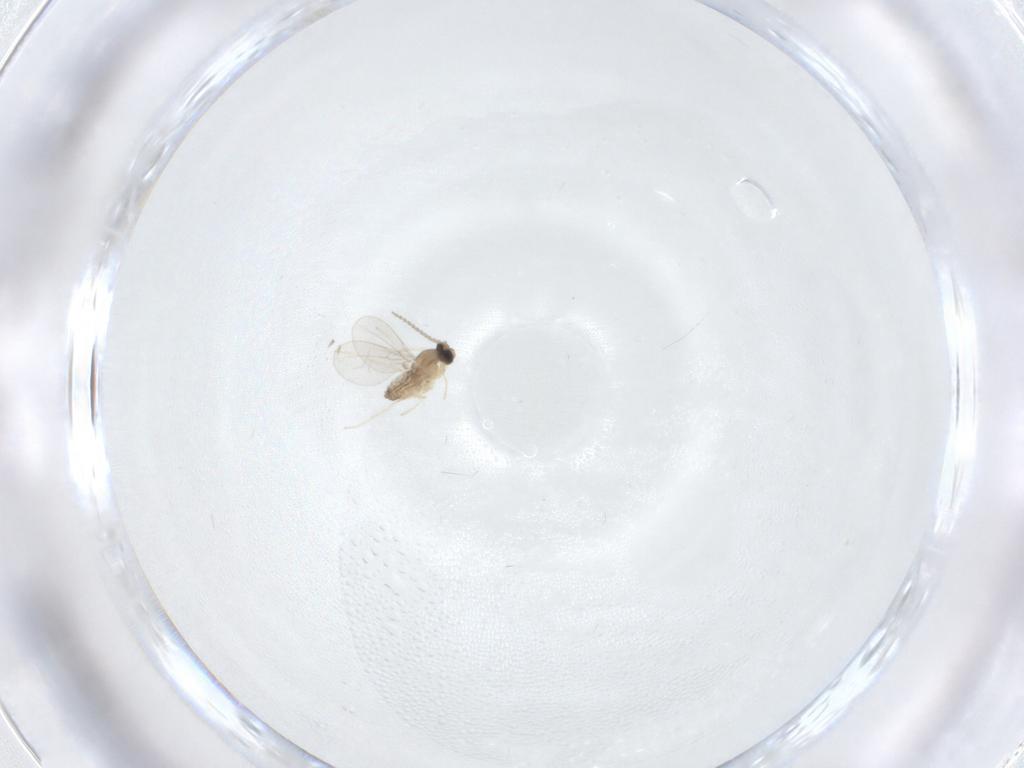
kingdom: Animalia
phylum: Arthropoda
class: Insecta
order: Diptera
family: Cecidomyiidae
